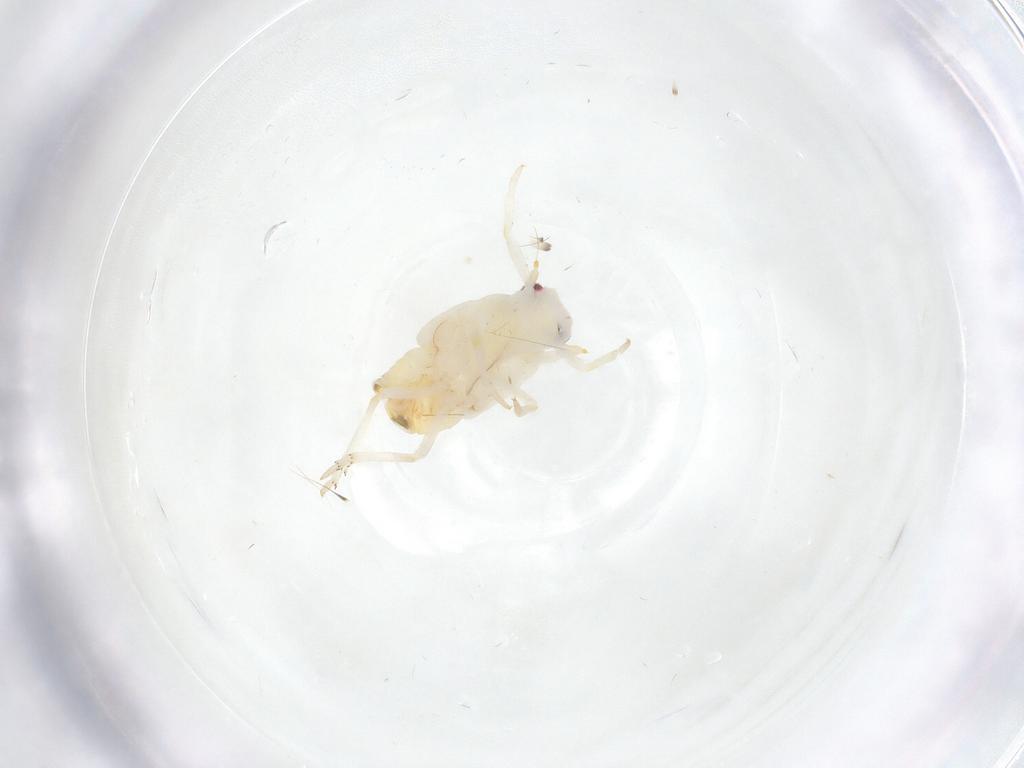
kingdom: Animalia
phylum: Arthropoda
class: Insecta
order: Hemiptera
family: Flatidae
